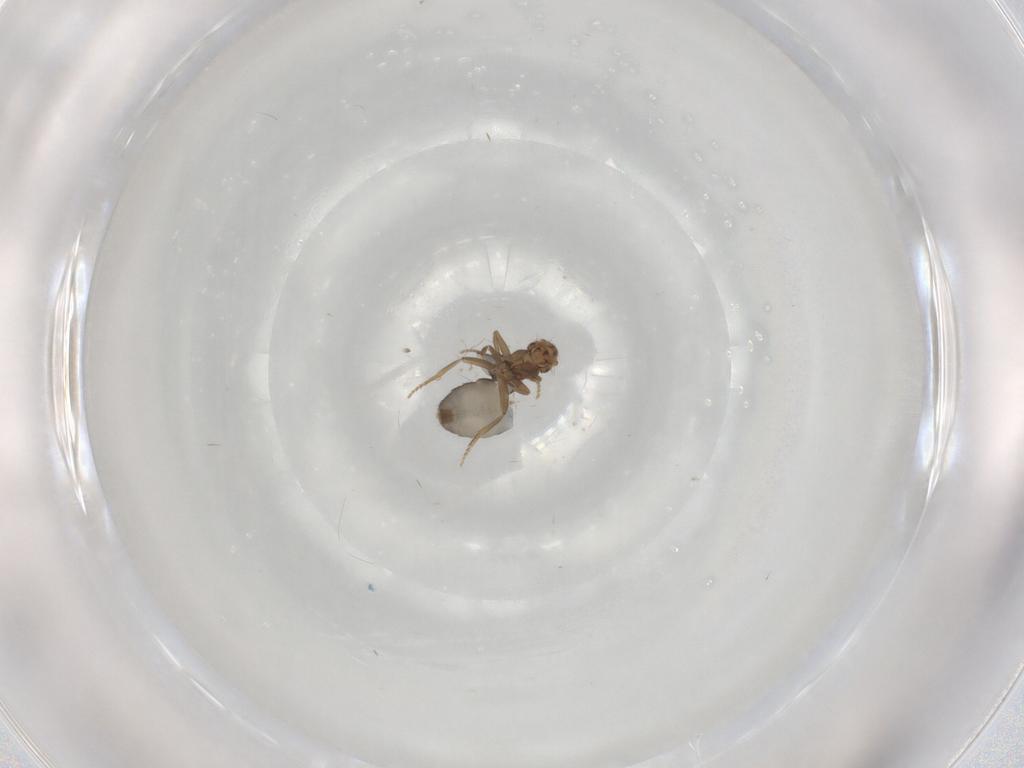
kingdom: Animalia
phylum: Arthropoda
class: Insecta
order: Diptera
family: Phoridae
